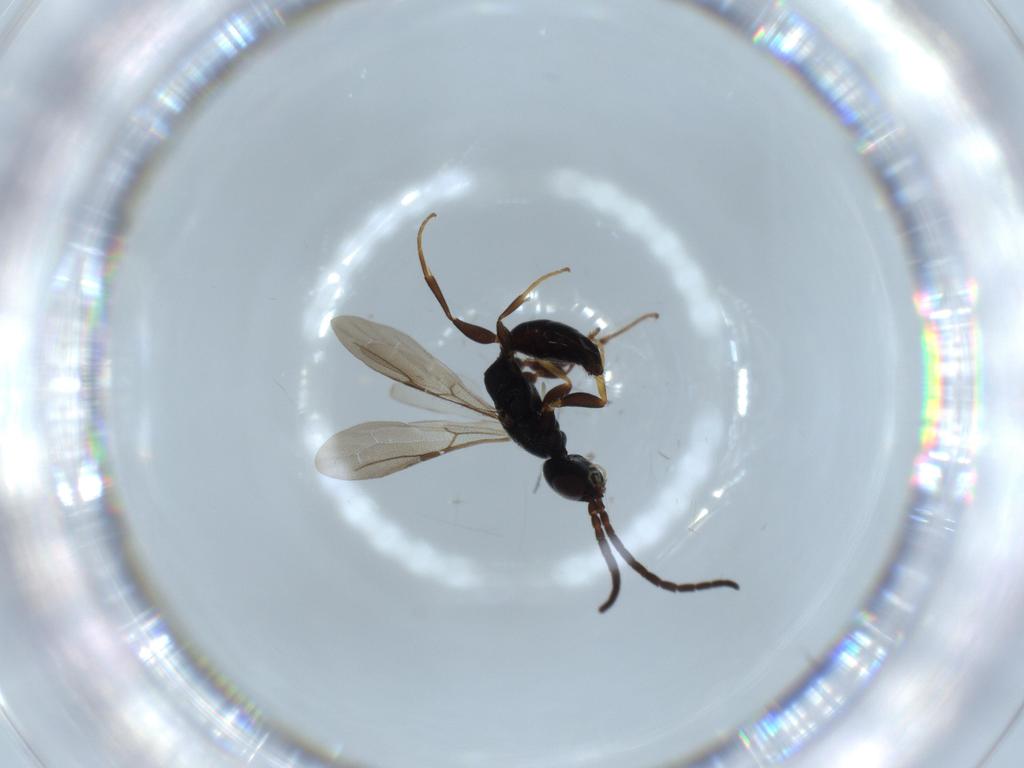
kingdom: Animalia
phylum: Arthropoda
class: Insecta
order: Hymenoptera
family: Bethylidae
